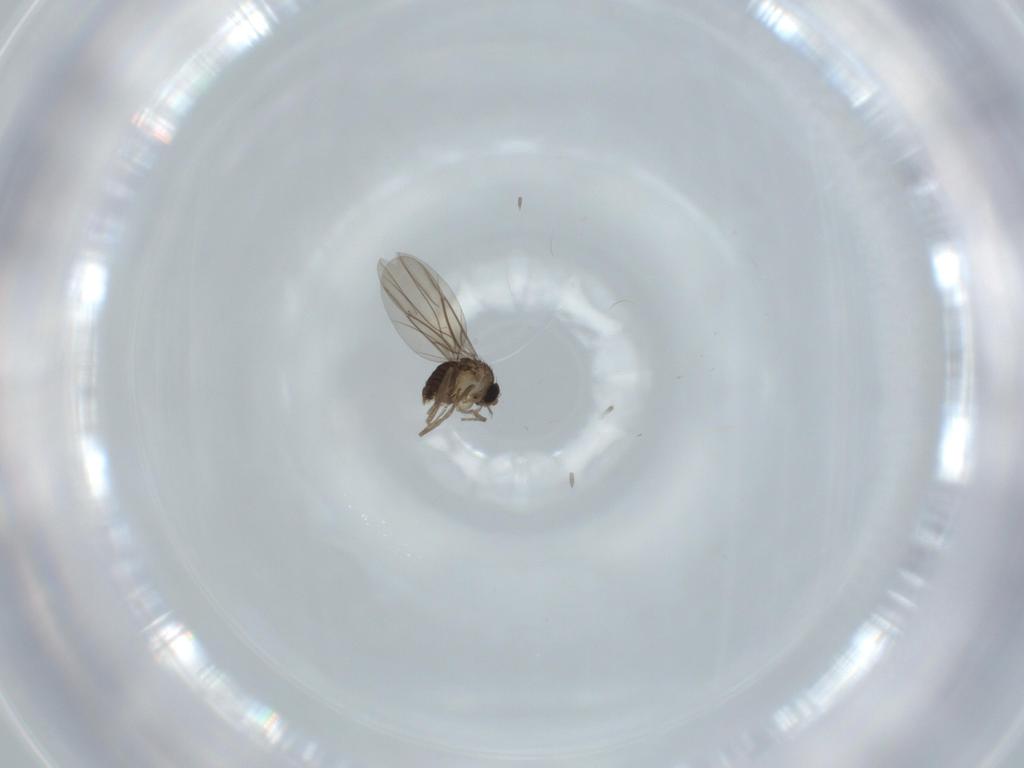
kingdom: Animalia
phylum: Arthropoda
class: Insecta
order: Diptera
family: Phoridae
